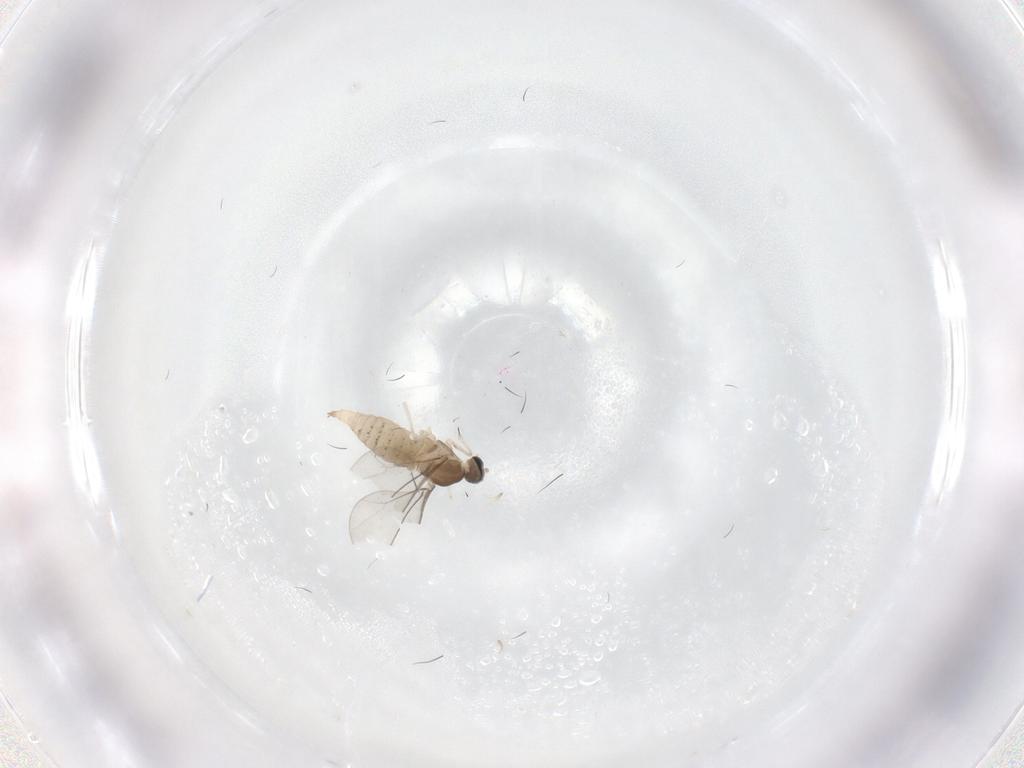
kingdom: Animalia
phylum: Arthropoda
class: Insecta
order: Diptera
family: Cecidomyiidae
